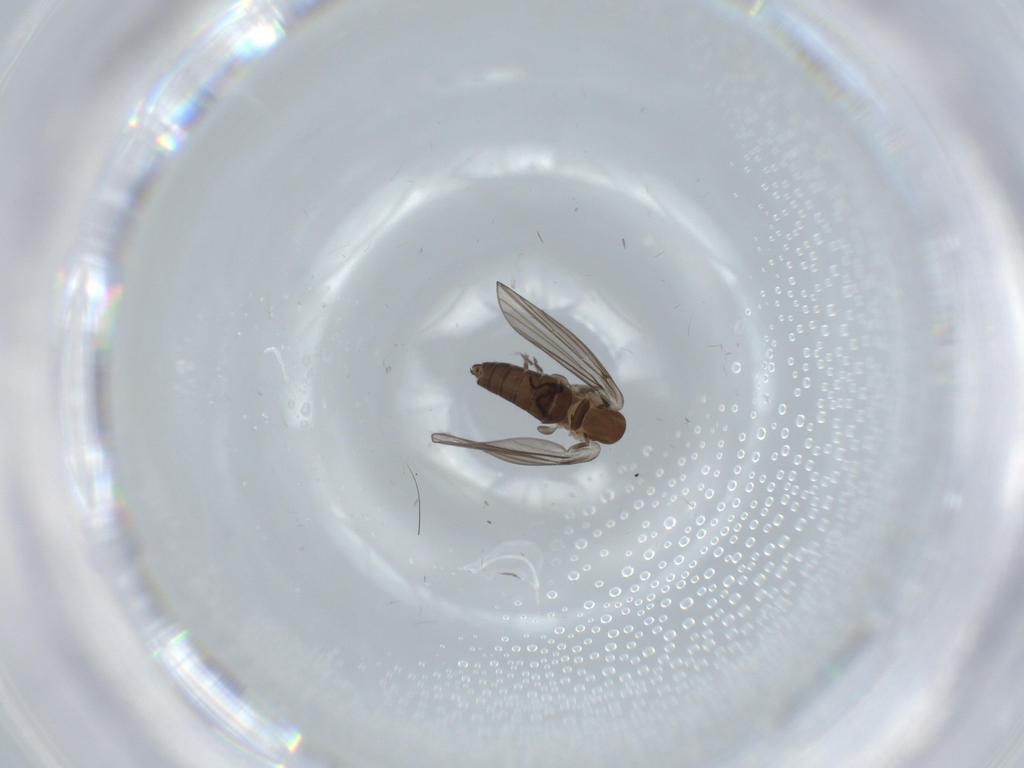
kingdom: Animalia
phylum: Arthropoda
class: Insecta
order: Diptera
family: Phoridae
